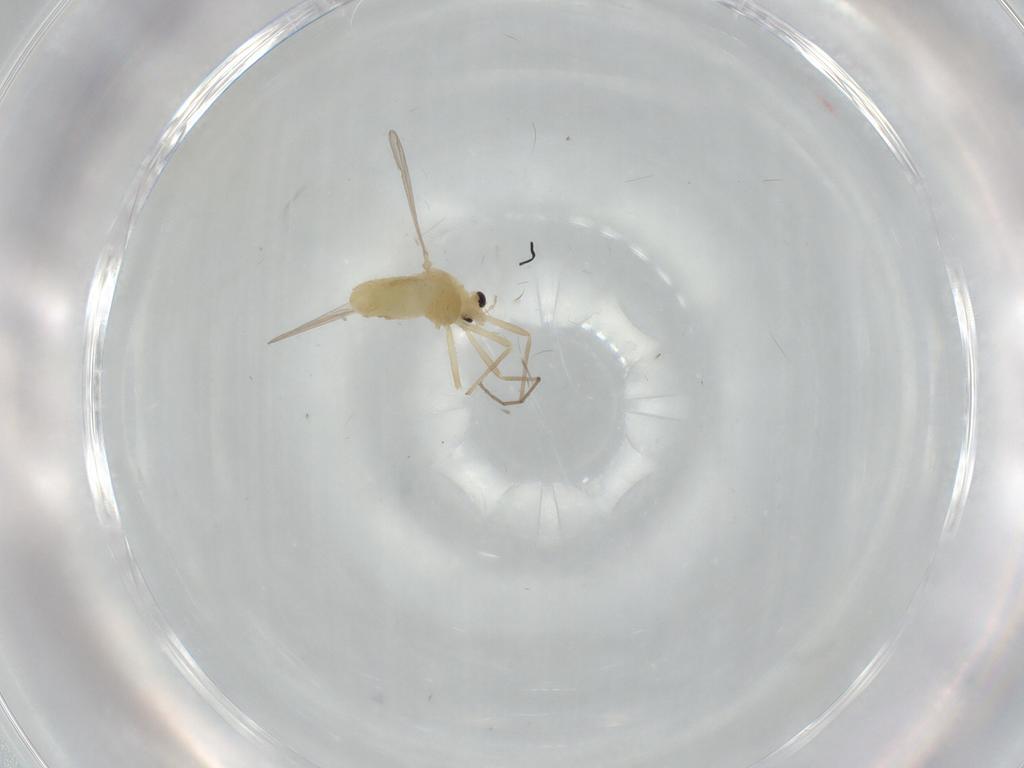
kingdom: Animalia
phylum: Arthropoda
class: Insecta
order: Diptera
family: Chironomidae
